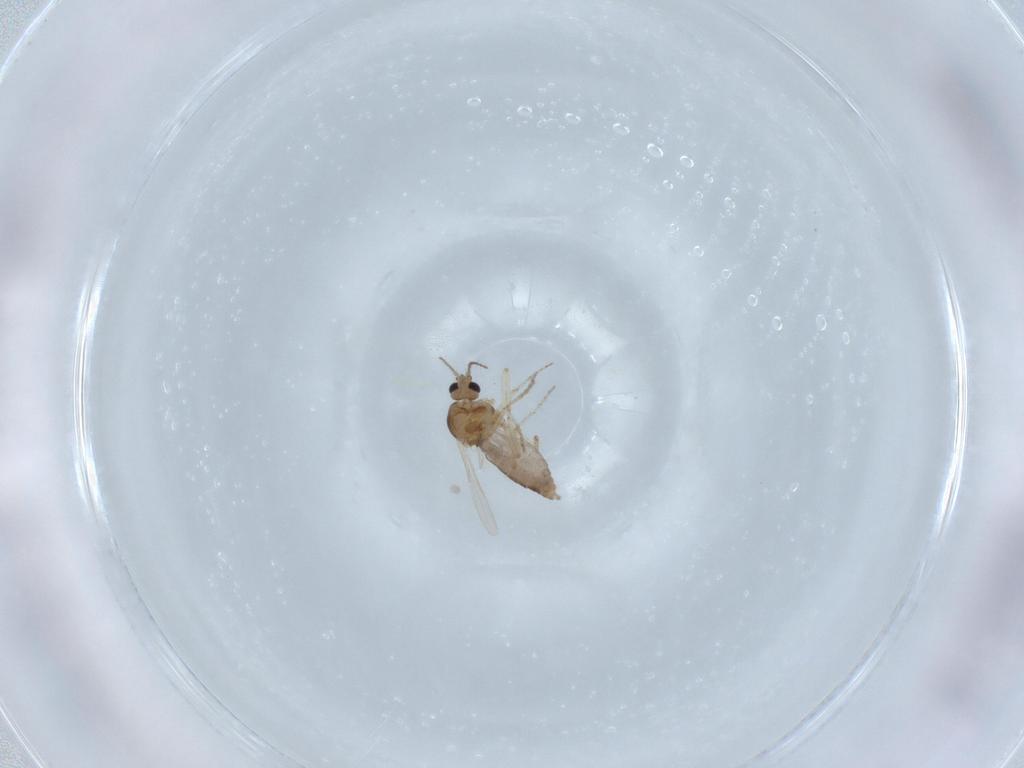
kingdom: Animalia
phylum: Arthropoda
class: Insecta
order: Diptera
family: Ceratopogonidae
